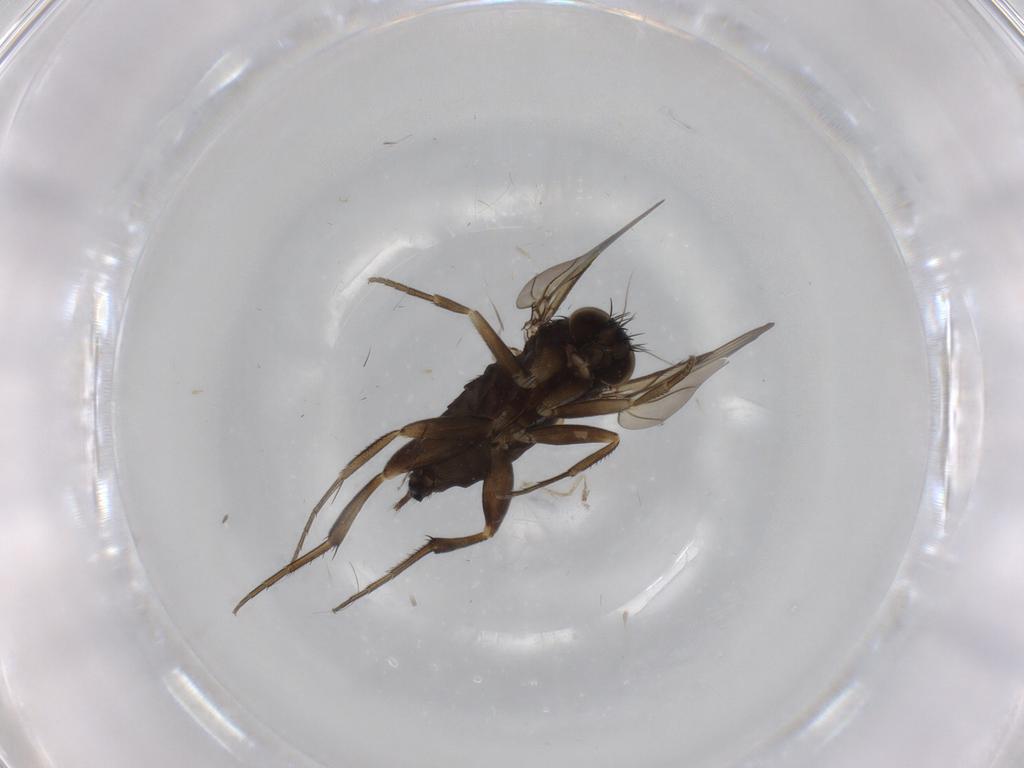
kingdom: Animalia
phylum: Arthropoda
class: Insecta
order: Diptera
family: Phoridae
